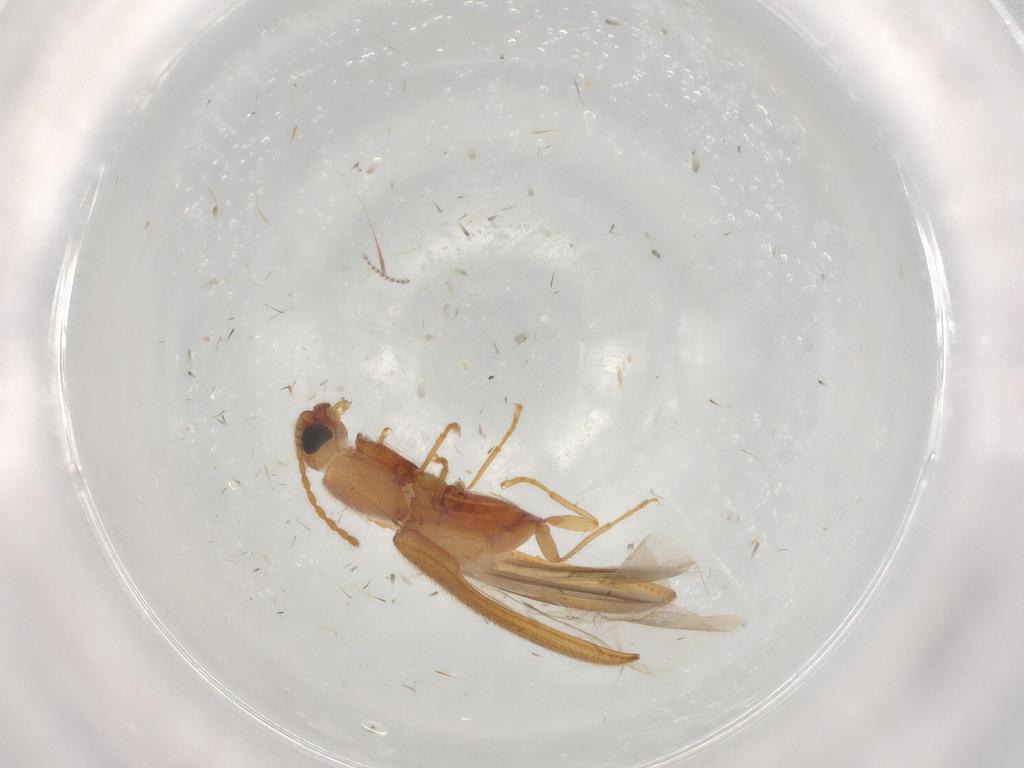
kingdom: Animalia
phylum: Arthropoda
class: Insecta
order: Coleoptera
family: Elateridae
